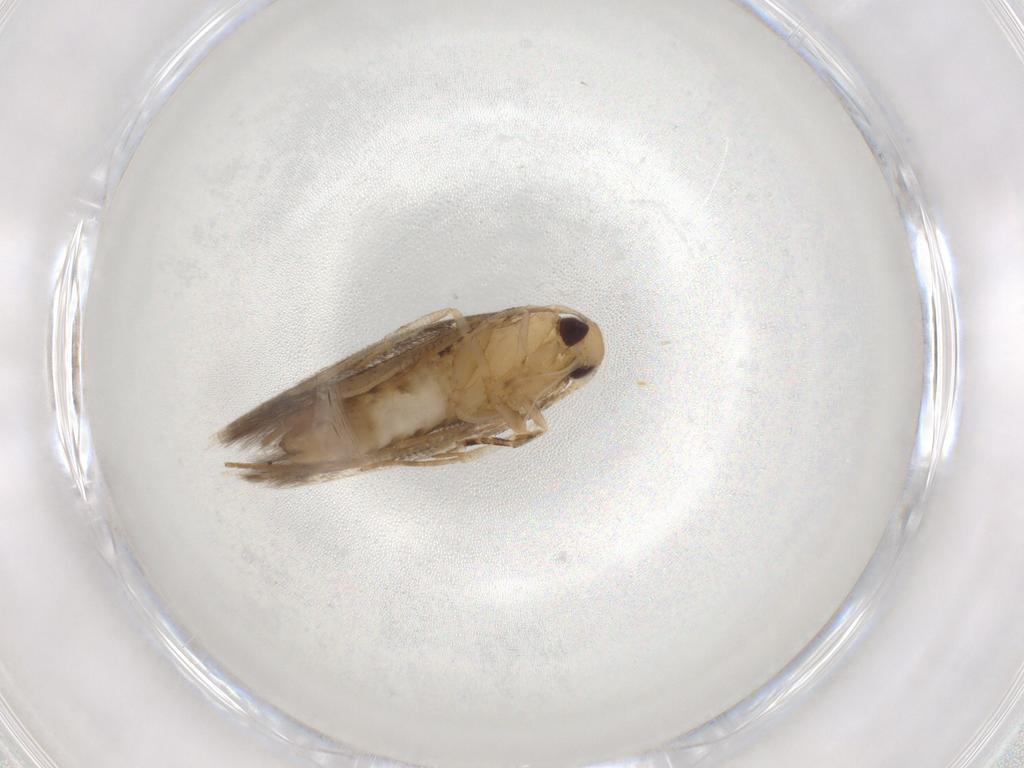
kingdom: Animalia
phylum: Arthropoda
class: Insecta
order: Lepidoptera
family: Cosmopterigidae
